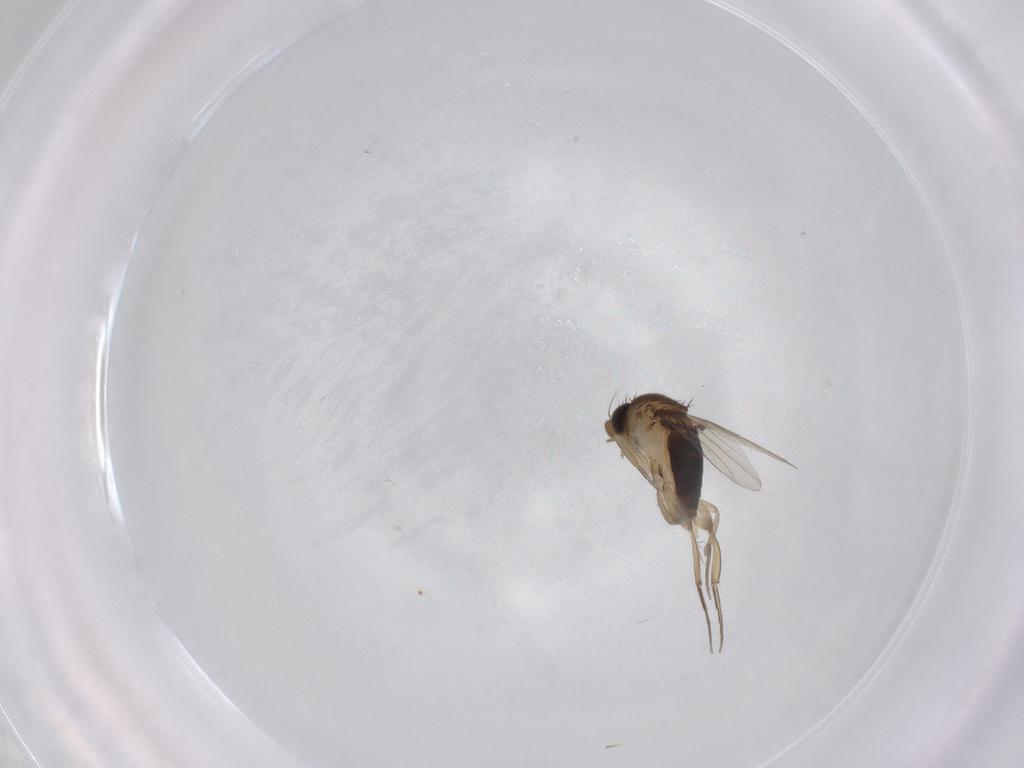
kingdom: Animalia
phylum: Arthropoda
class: Insecta
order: Diptera
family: Phoridae
